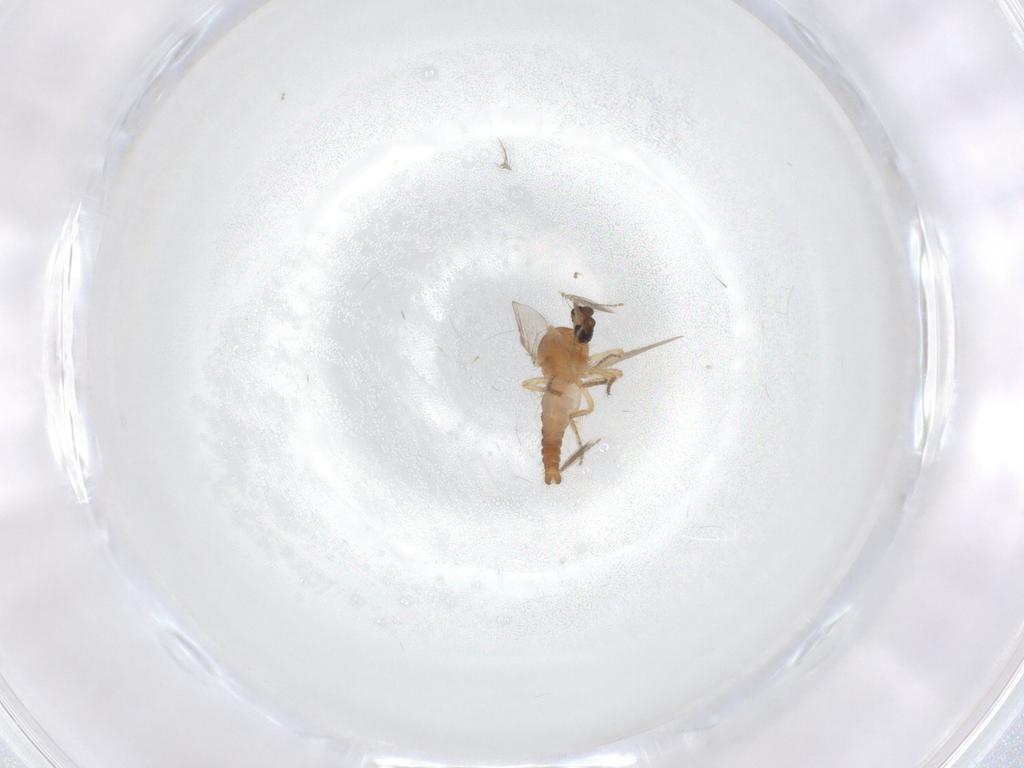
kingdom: Animalia
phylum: Arthropoda
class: Insecta
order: Diptera
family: Ceratopogonidae
